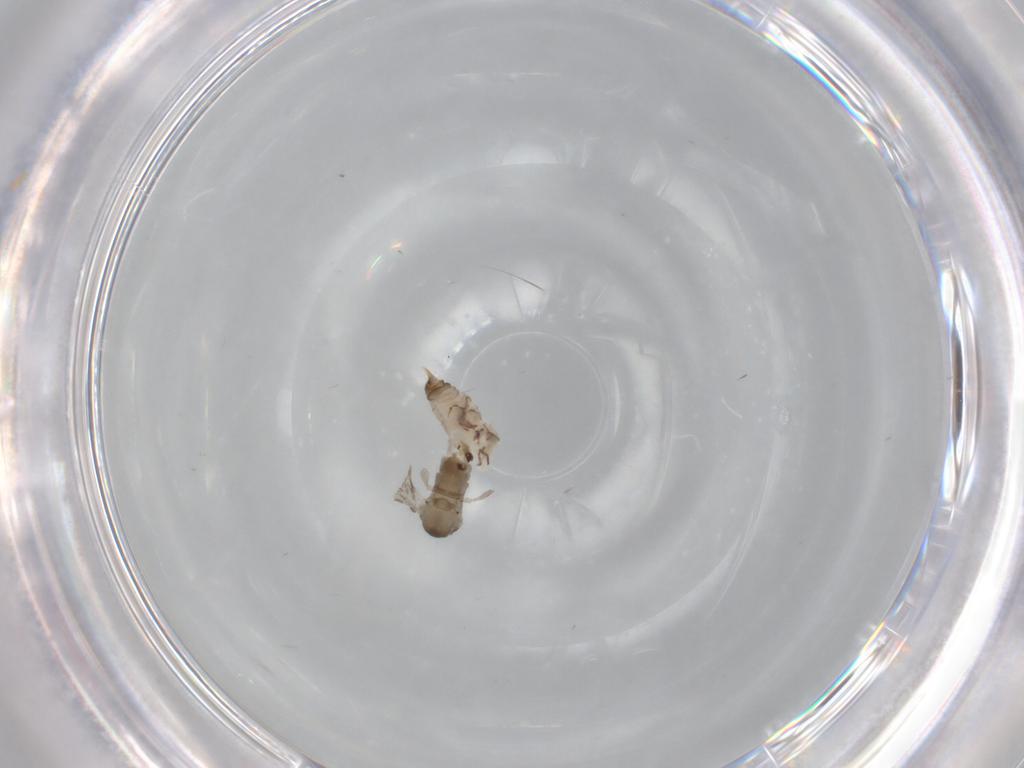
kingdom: Animalia
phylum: Arthropoda
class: Insecta
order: Diptera
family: Psychodidae
